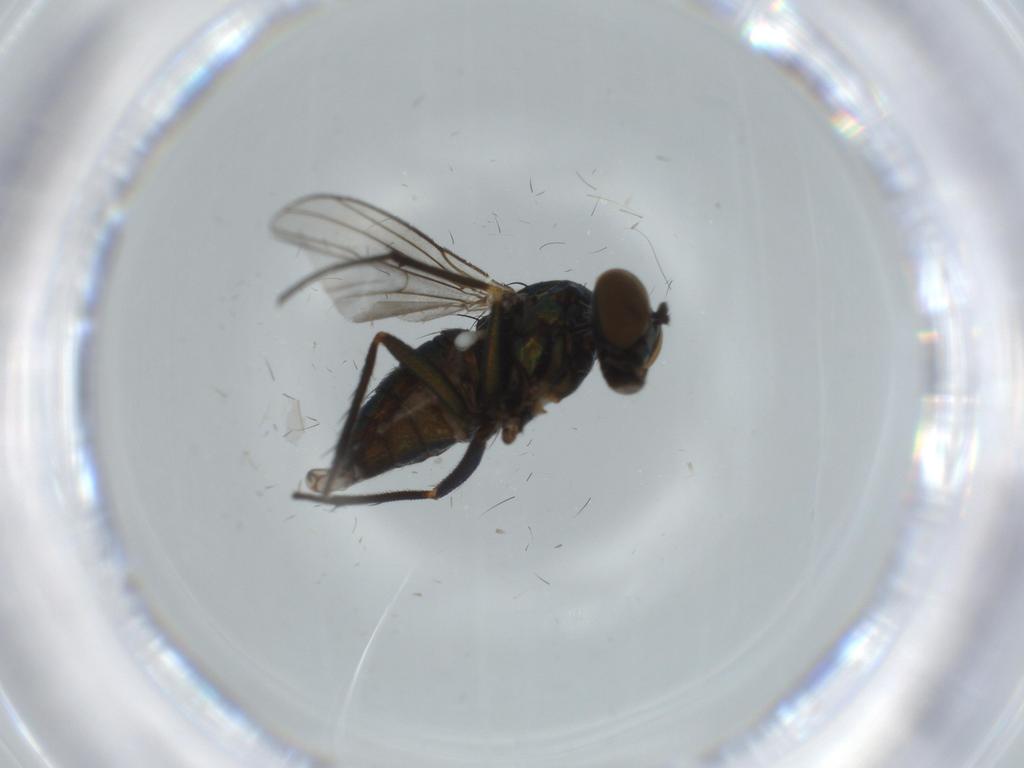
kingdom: Animalia
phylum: Arthropoda
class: Insecta
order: Diptera
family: Dolichopodidae
